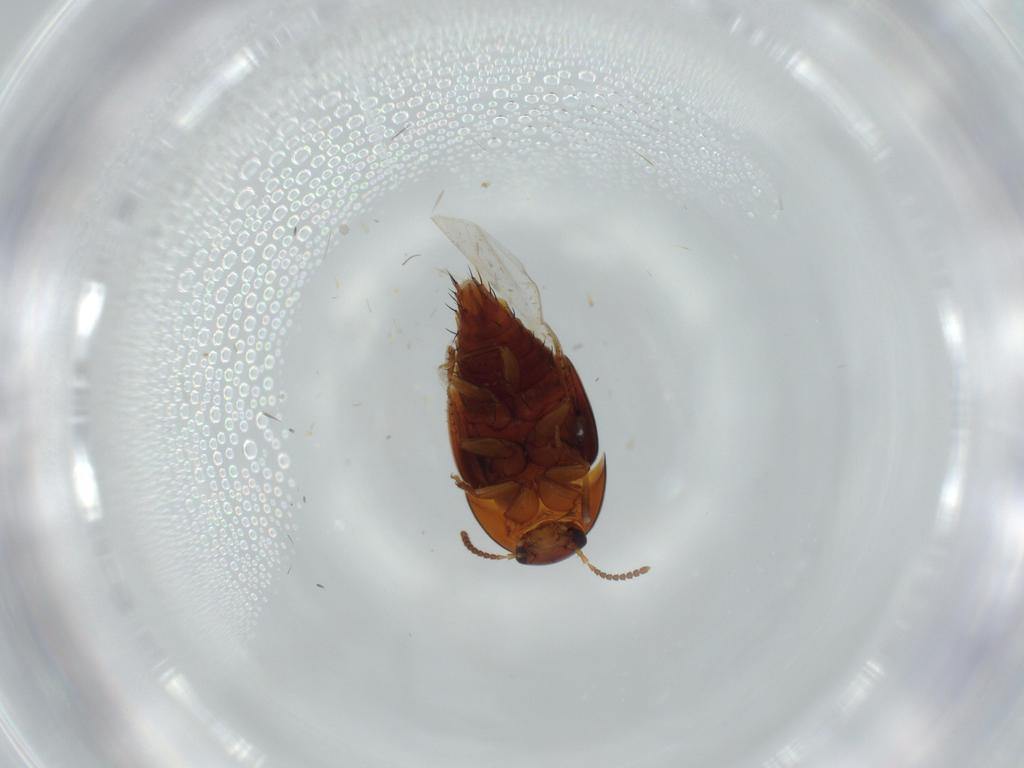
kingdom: Animalia
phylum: Arthropoda
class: Insecta
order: Coleoptera
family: Staphylinidae
